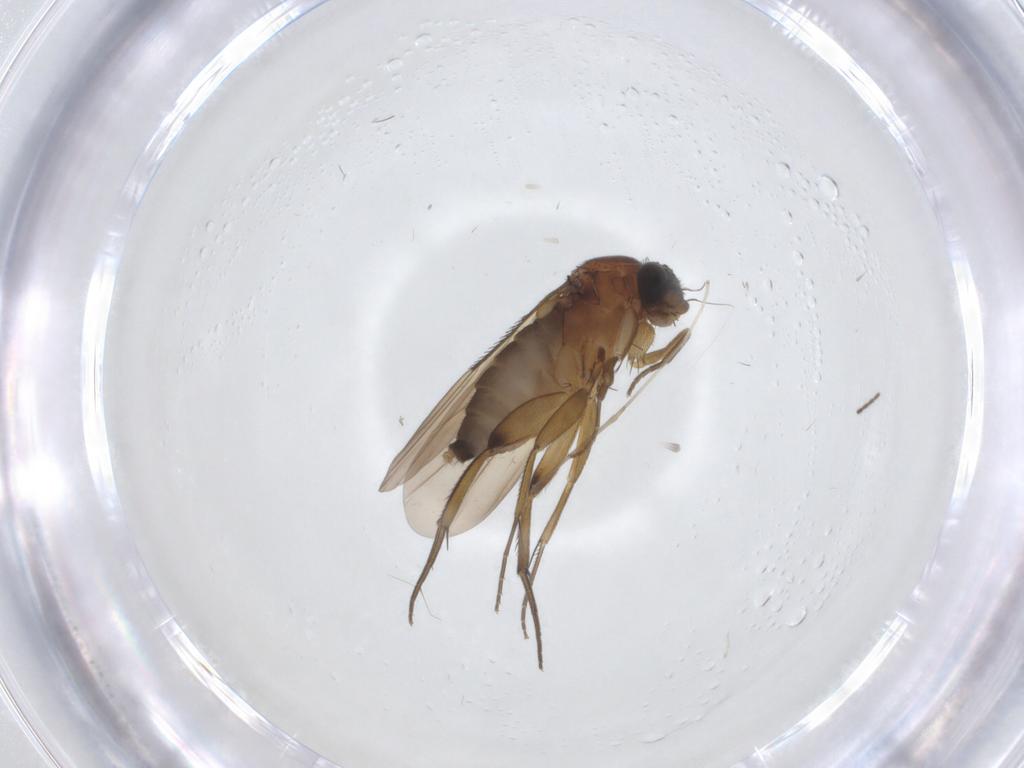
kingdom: Animalia
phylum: Arthropoda
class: Insecta
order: Diptera
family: Phoridae
